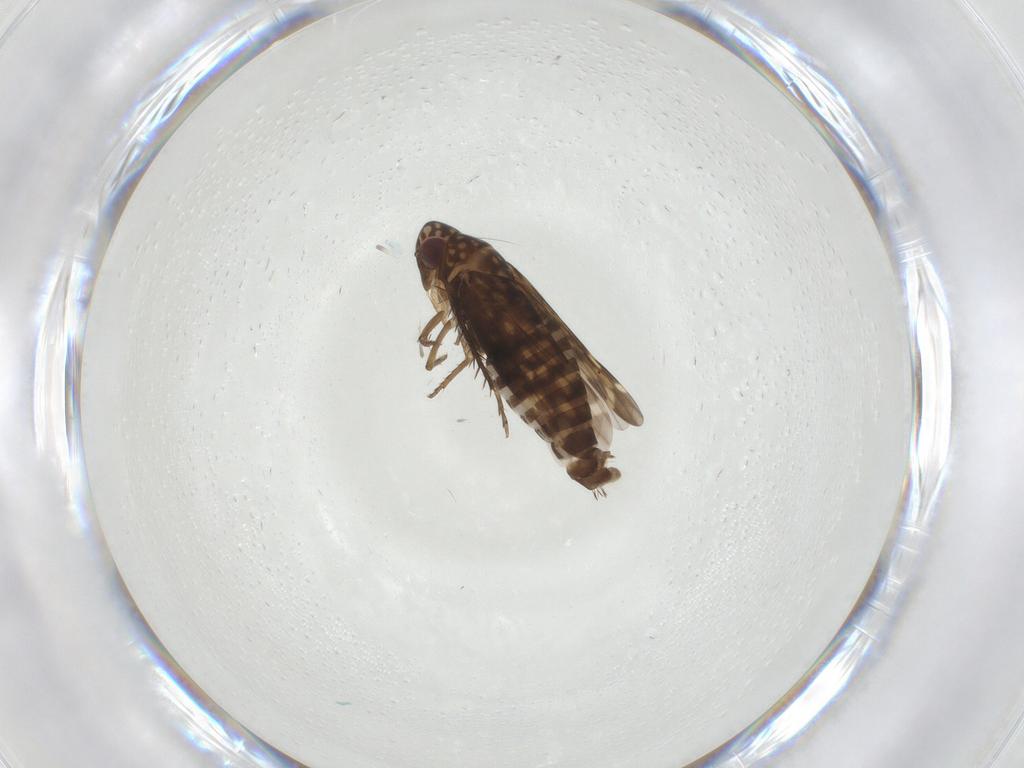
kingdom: Animalia
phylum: Arthropoda
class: Insecta
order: Hemiptera
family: Cicadellidae
